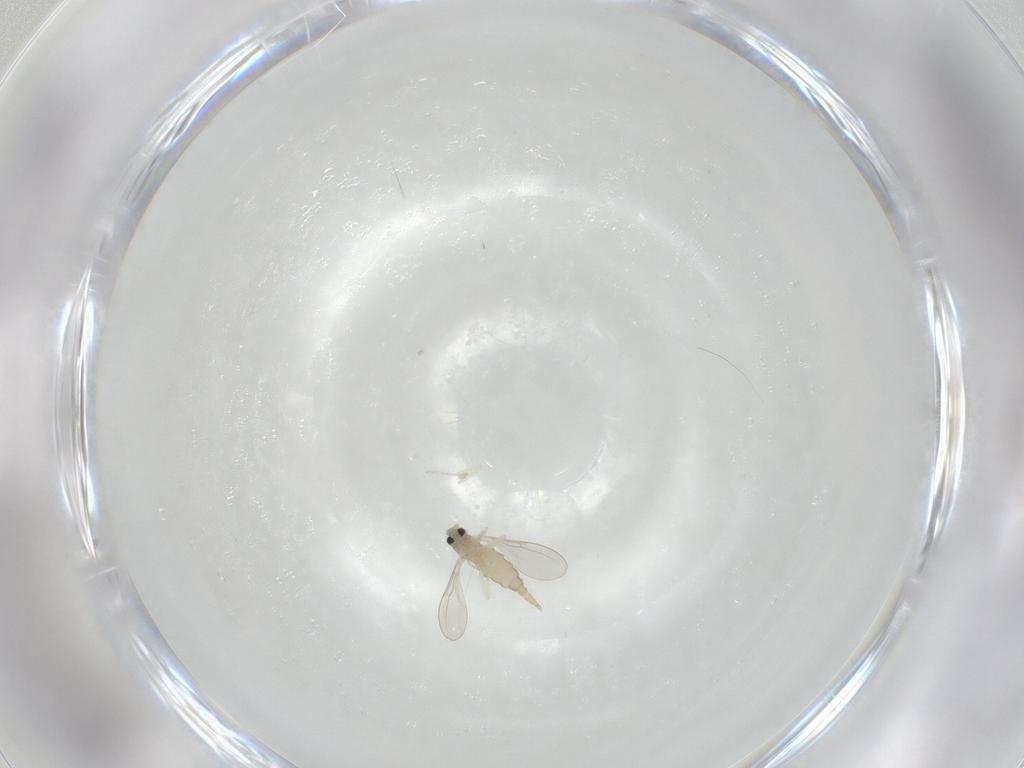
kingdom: Animalia
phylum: Arthropoda
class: Insecta
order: Diptera
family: Cecidomyiidae
